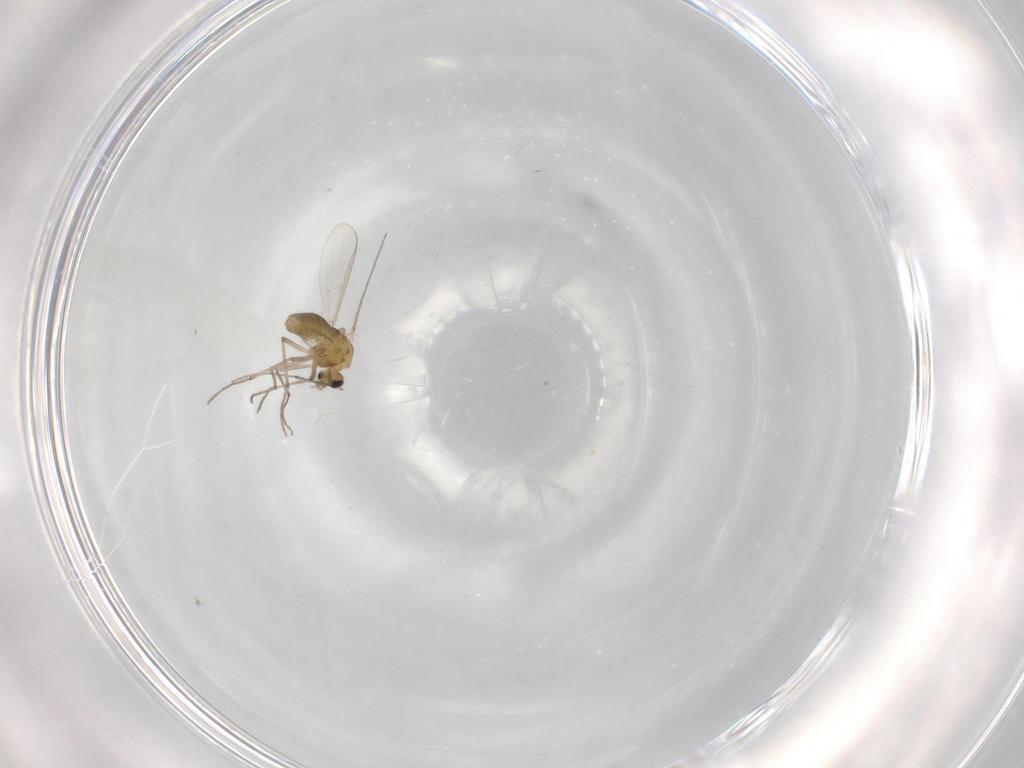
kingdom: Animalia
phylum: Arthropoda
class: Insecta
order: Diptera
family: Chironomidae
